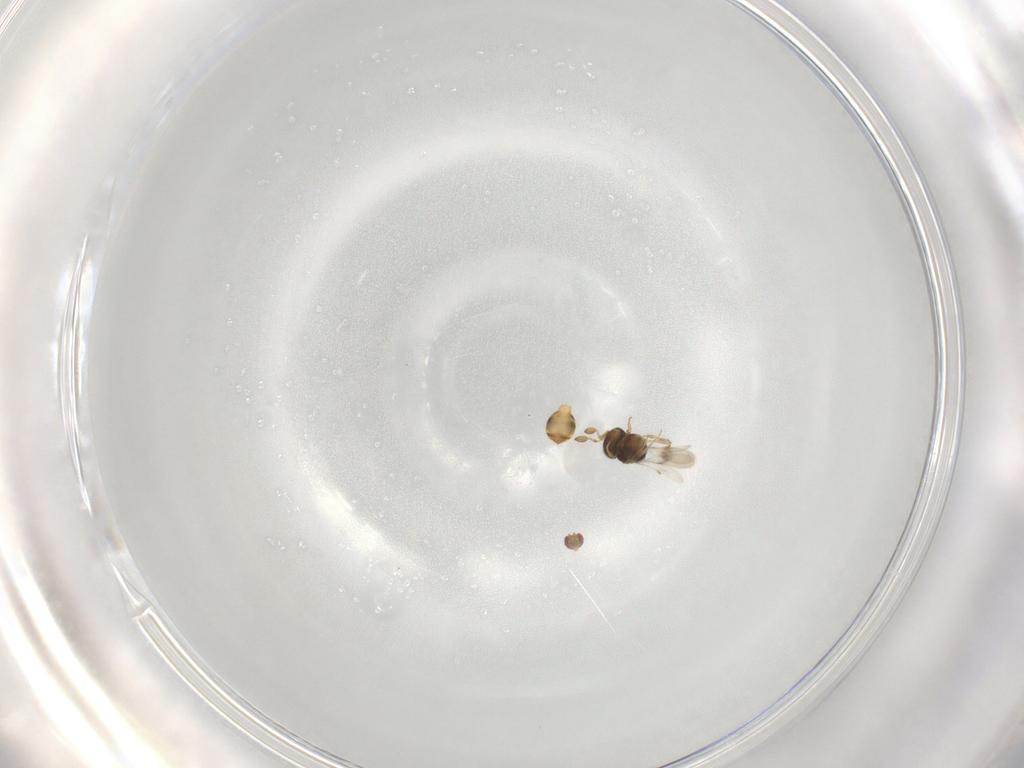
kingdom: Animalia
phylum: Arthropoda
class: Insecta
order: Hymenoptera
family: Scelionidae
